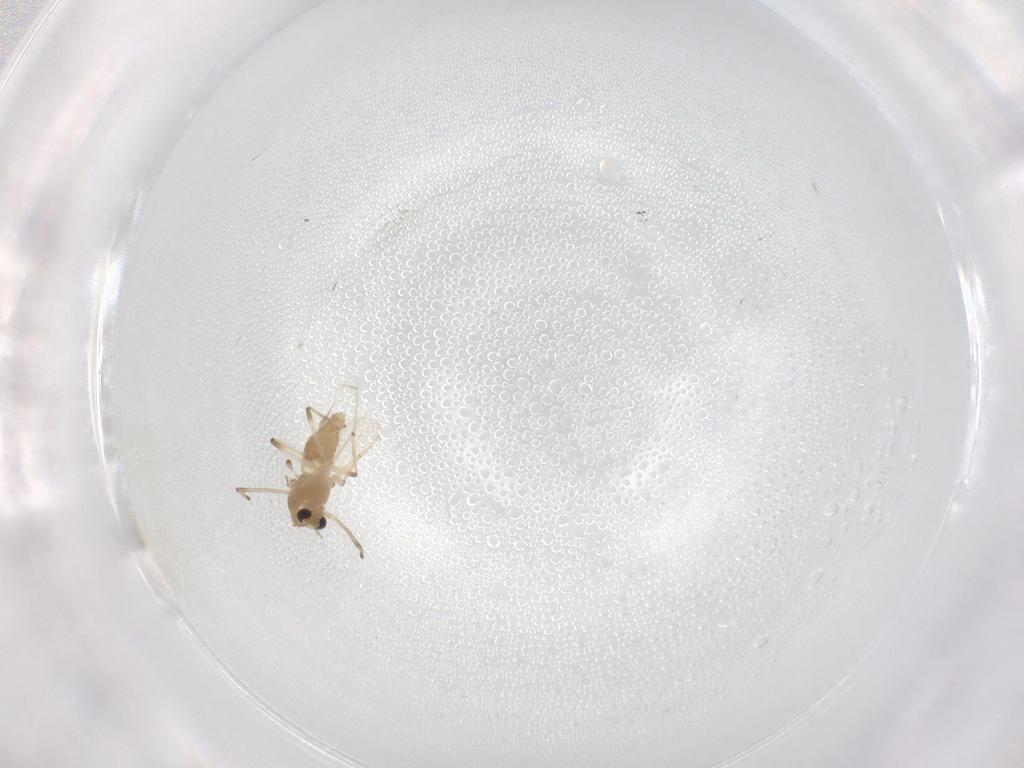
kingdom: Animalia
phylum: Arthropoda
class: Insecta
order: Diptera
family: Chironomidae
